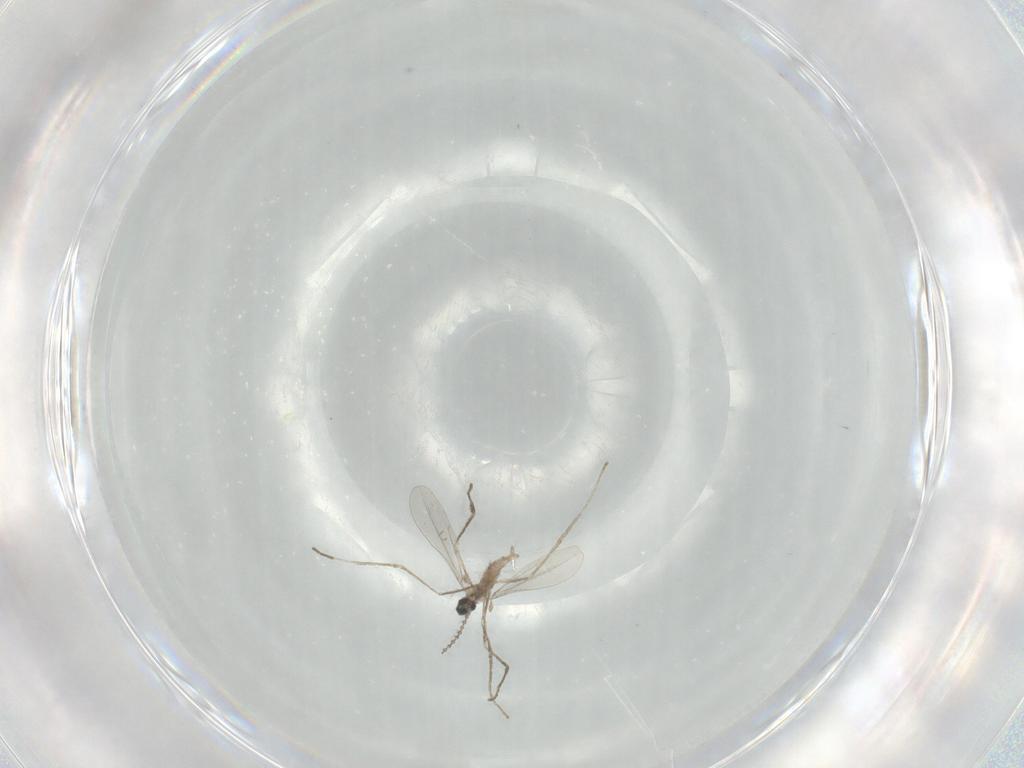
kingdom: Animalia
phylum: Arthropoda
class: Insecta
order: Diptera
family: Cecidomyiidae
